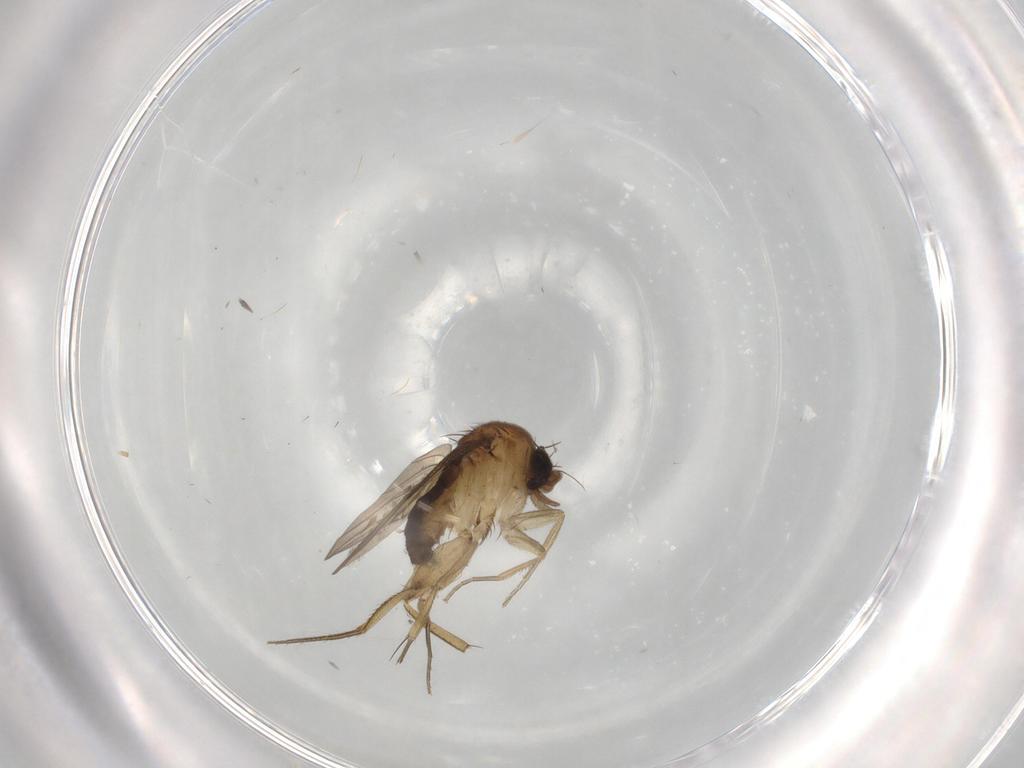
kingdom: Animalia
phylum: Arthropoda
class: Insecta
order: Diptera
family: Phoridae
